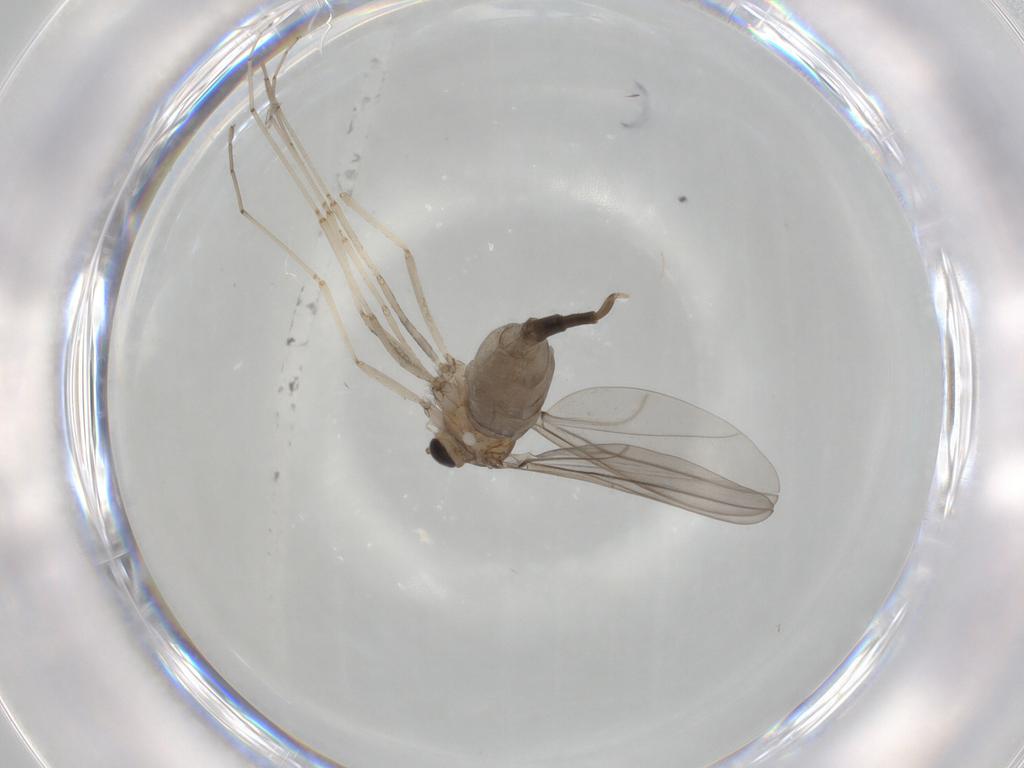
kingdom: Animalia
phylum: Arthropoda
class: Insecta
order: Diptera
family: Cecidomyiidae
